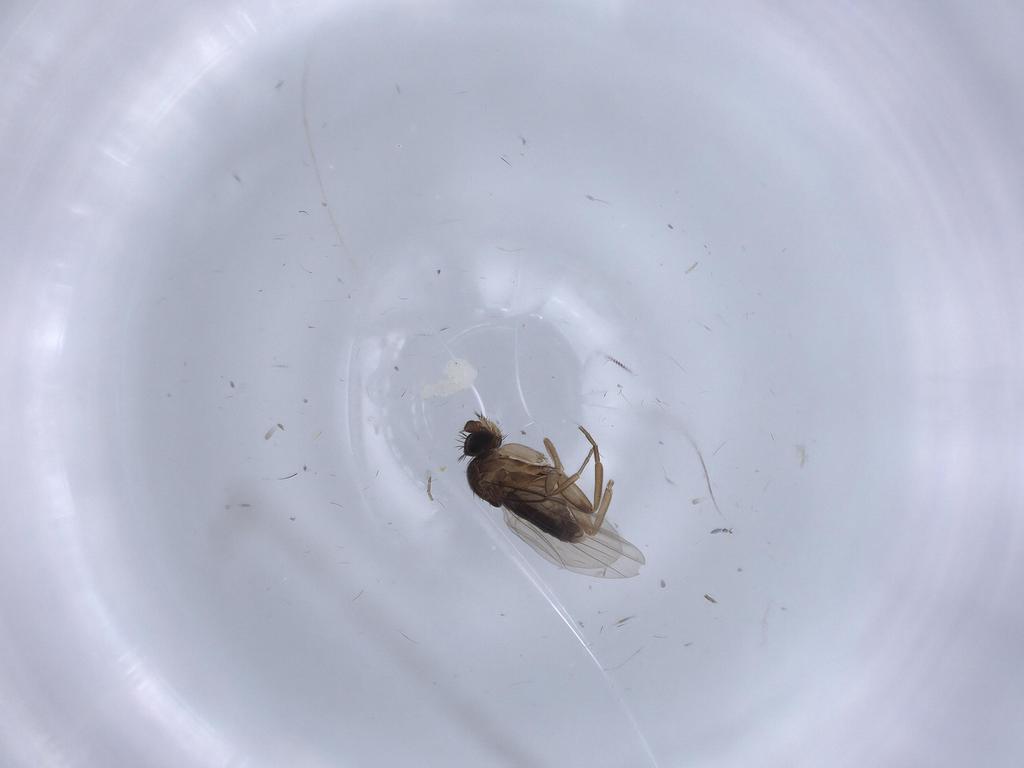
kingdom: Animalia
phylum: Arthropoda
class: Insecta
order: Diptera
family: Phoridae
